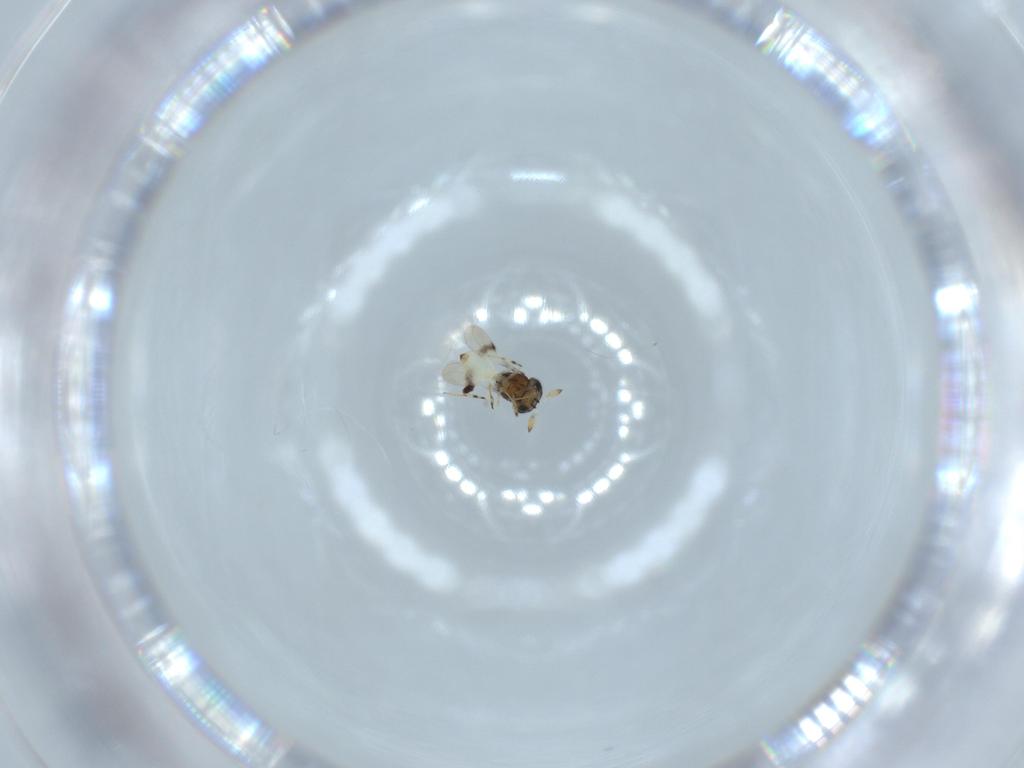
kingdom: Animalia
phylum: Arthropoda
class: Insecta
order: Hymenoptera
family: Scelionidae
